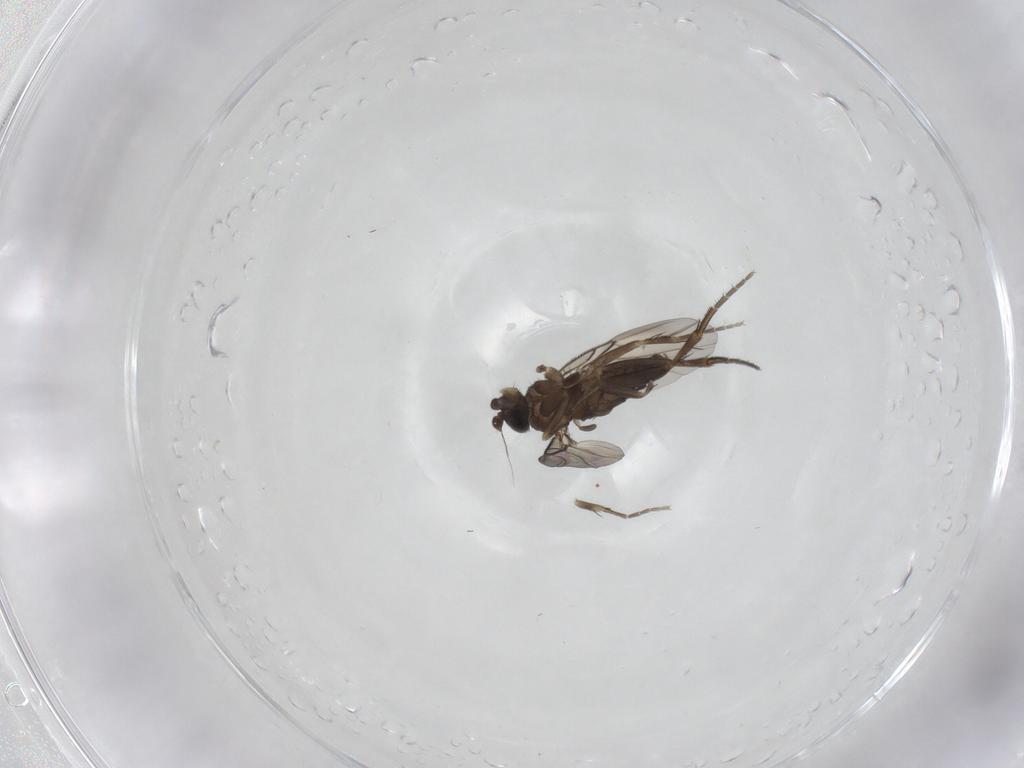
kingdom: Animalia
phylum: Arthropoda
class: Insecta
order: Diptera
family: Phoridae
